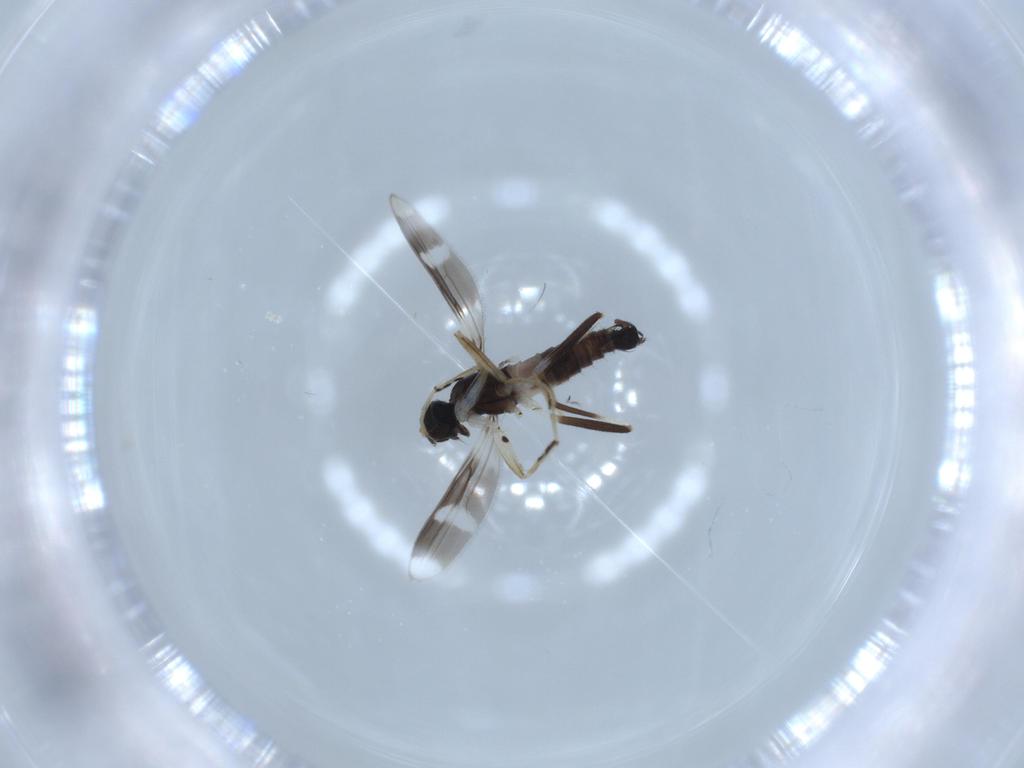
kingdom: Animalia
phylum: Arthropoda
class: Insecta
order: Diptera
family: Hybotidae
